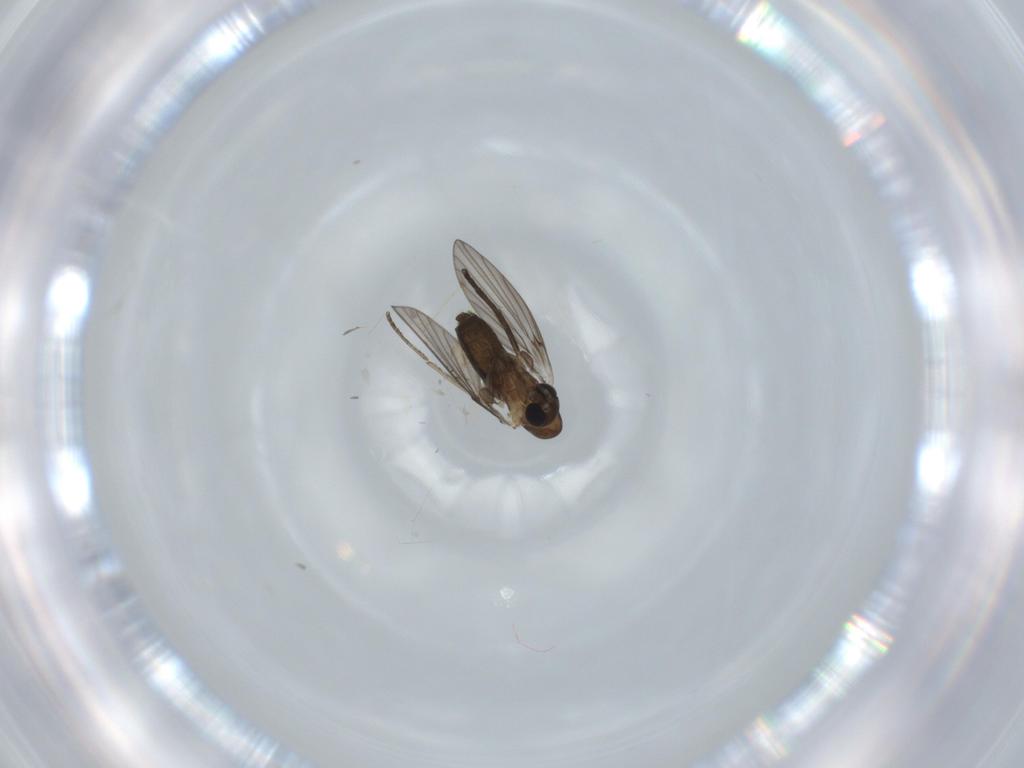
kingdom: Animalia
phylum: Arthropoda
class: Insecta
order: Diptera
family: Psychodidae
